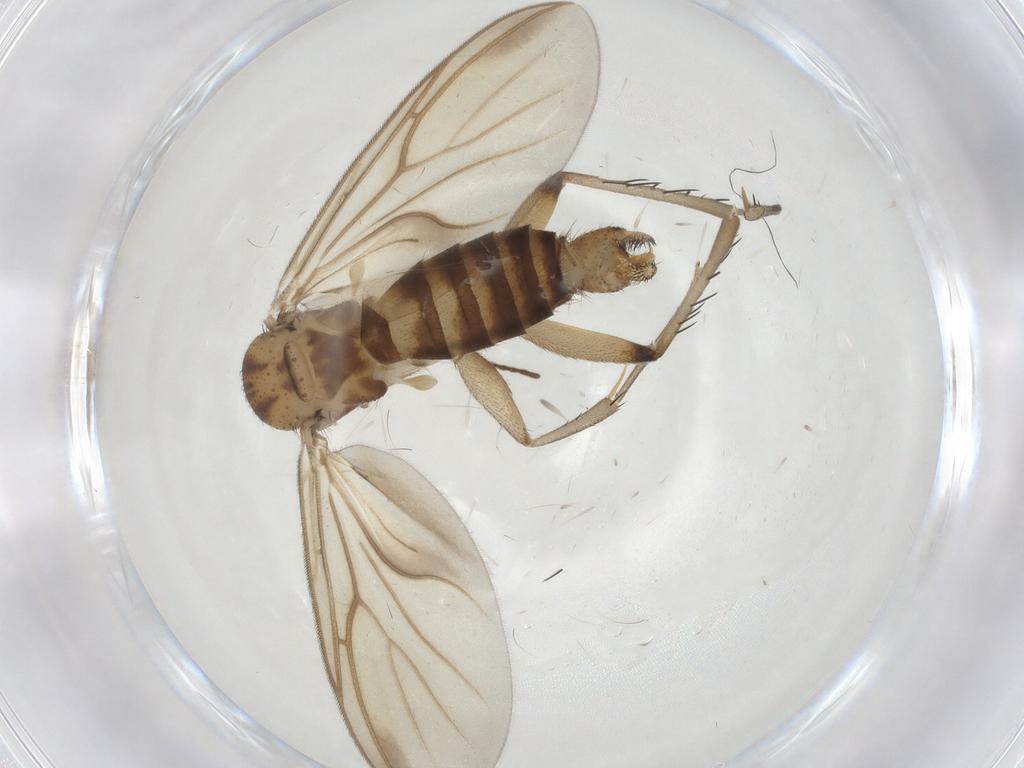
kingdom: Animalia
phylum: Arthropoda
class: Insecta
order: Diptera
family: Mycetophilidae
